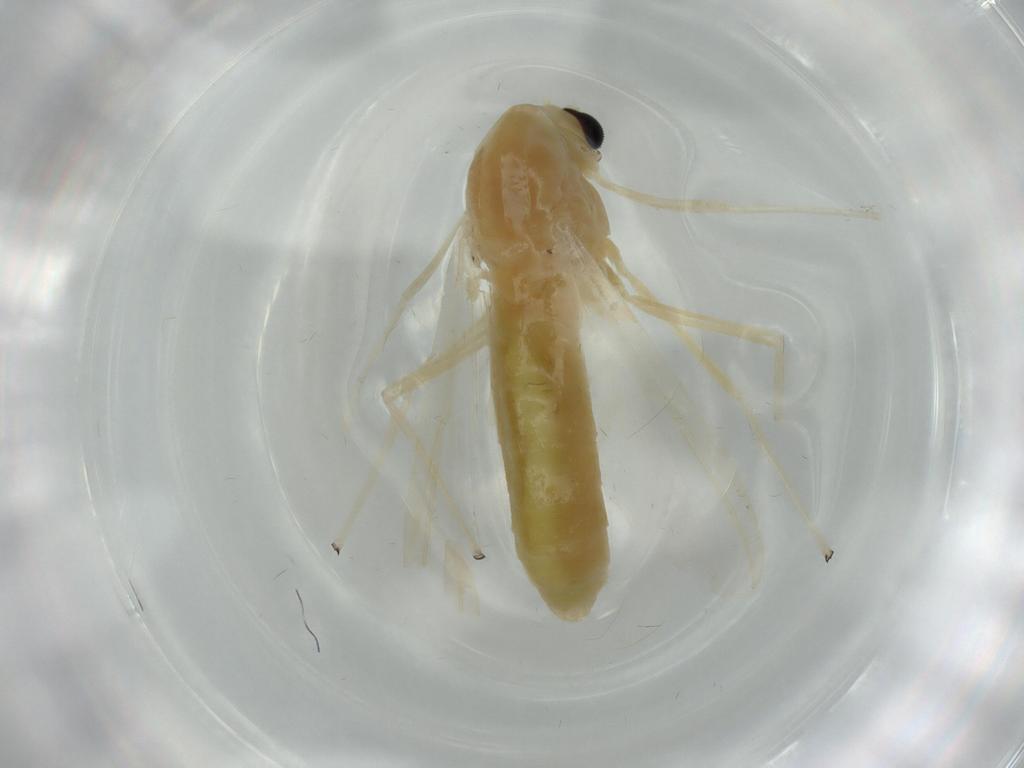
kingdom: Animalia
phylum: Arthropoda
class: Insecta
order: Diptera
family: Chironomidae
